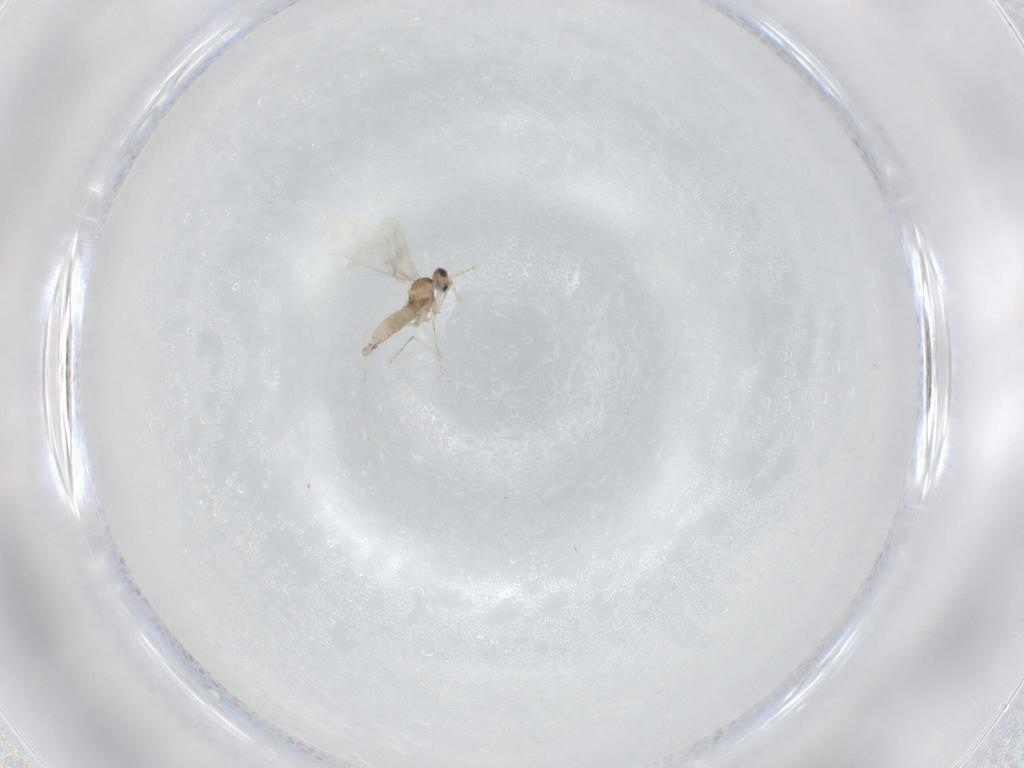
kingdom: Animalia
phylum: Arthropoda
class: Insecta
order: Diptera
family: Cecidomyiidae
